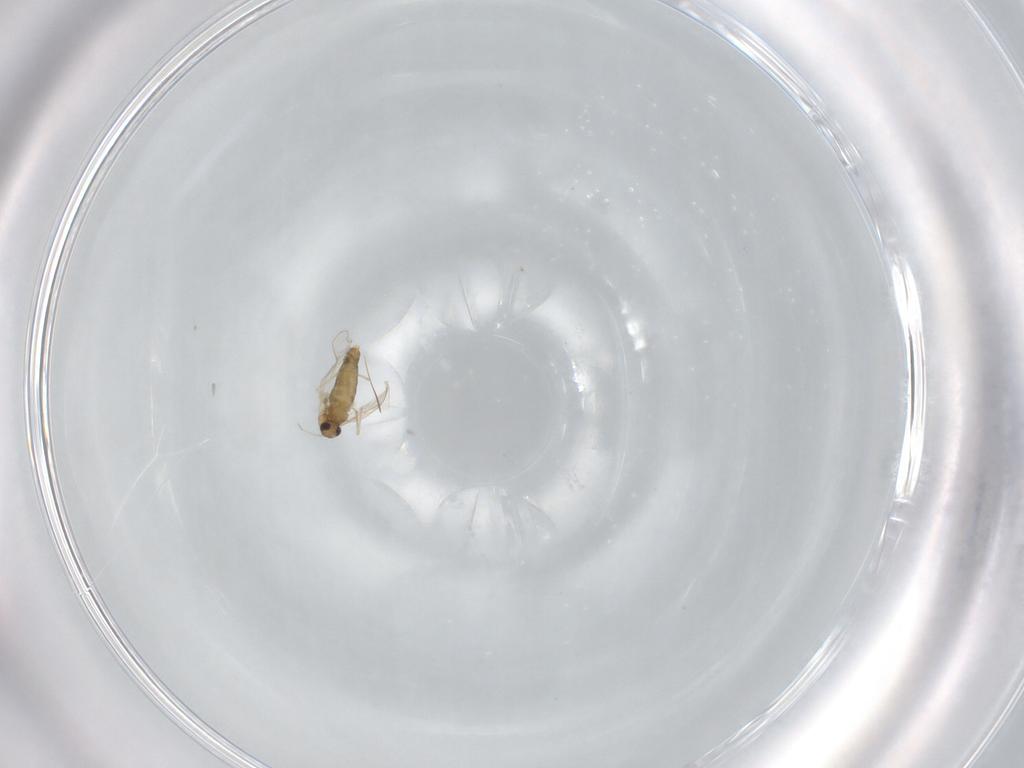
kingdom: Animalia
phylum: Arthropoda
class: Insecta
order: Diptera
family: Chironomidae
